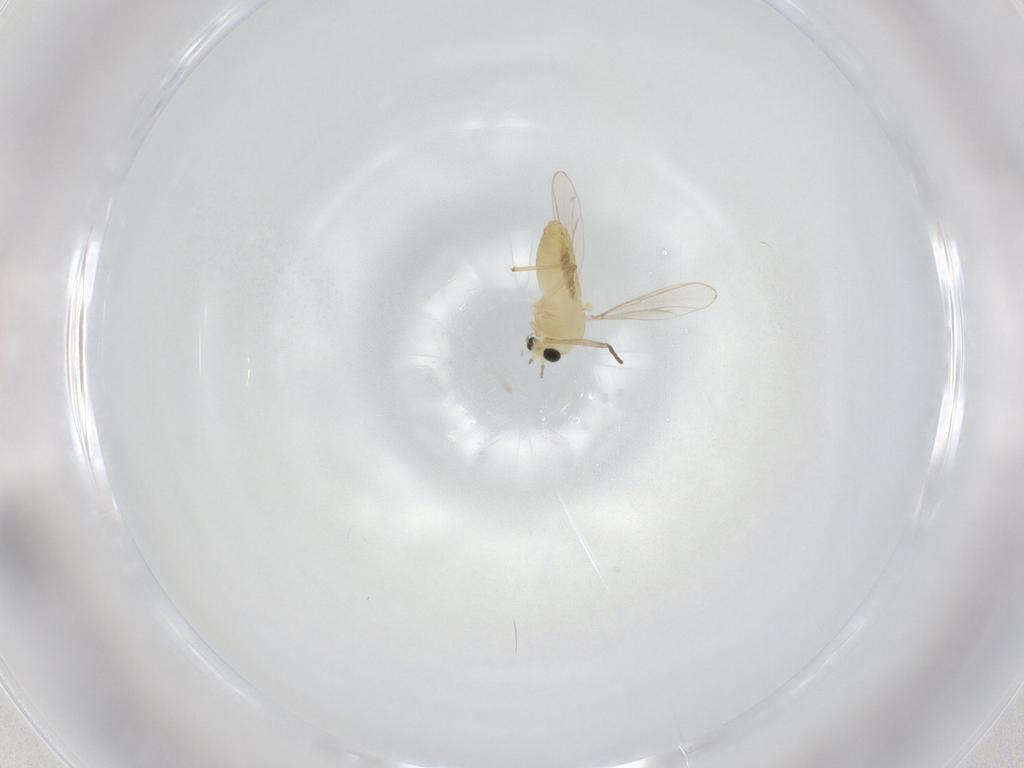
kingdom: Animalia
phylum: Arthropoda
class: Insecta
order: Diptera
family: Chironomidae
